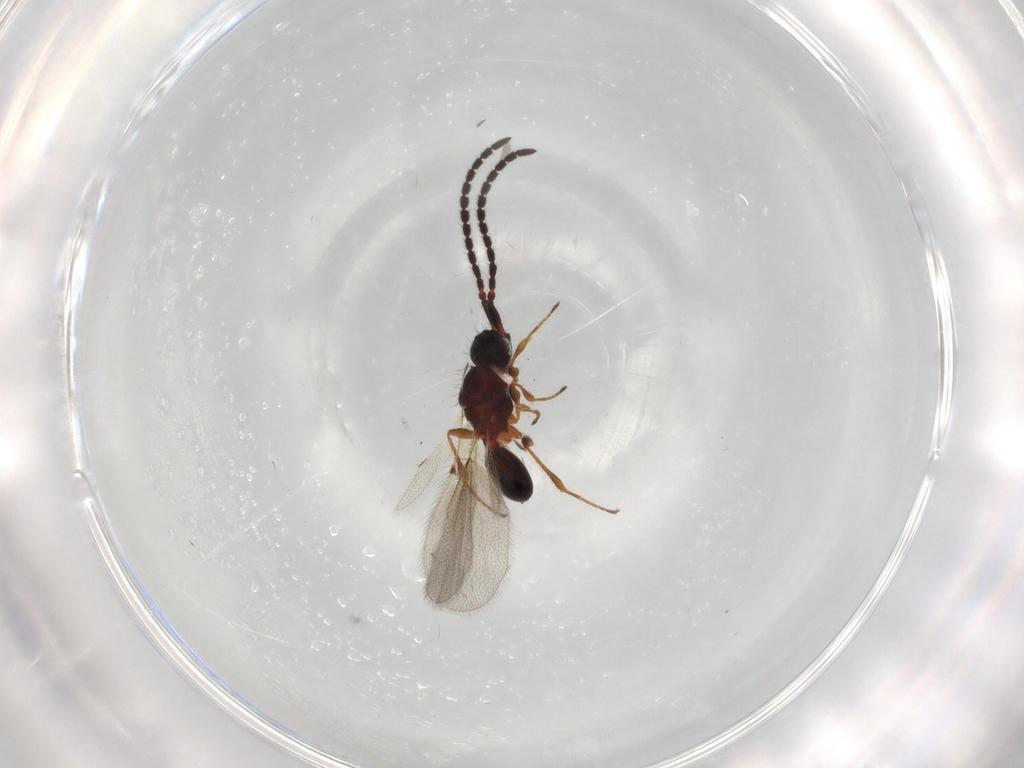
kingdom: Animalia
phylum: Arthropoda
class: Insecta
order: Hymenoptera
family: Diapriidae
